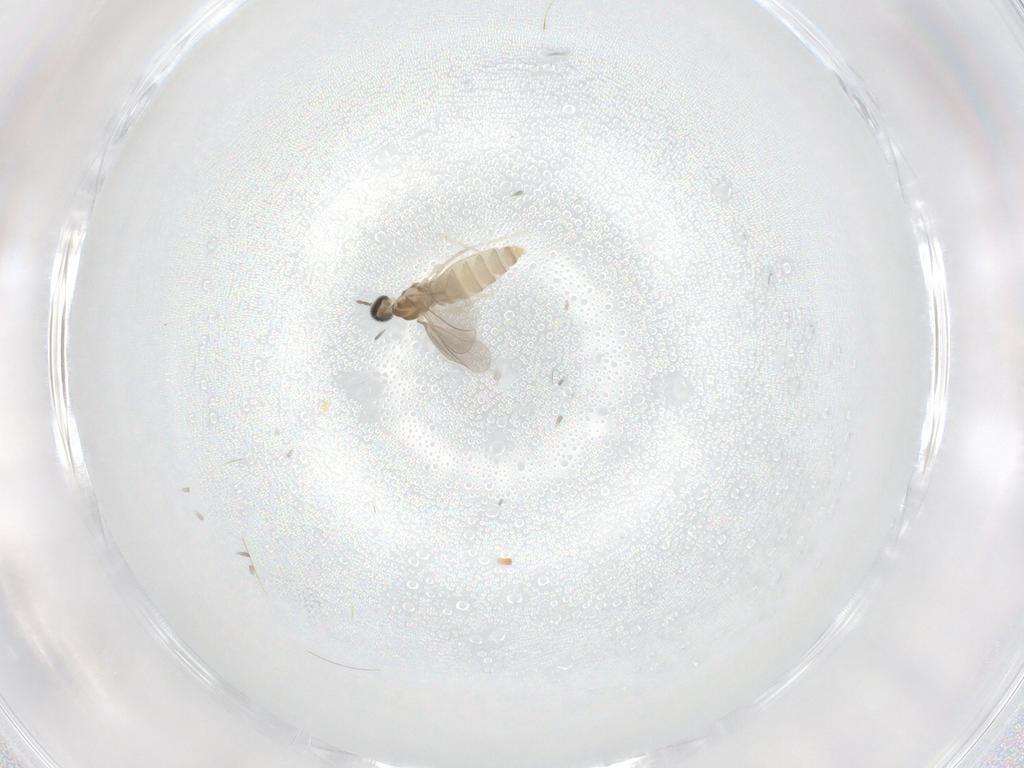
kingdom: Animalia
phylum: Arthropoda
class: Insecta
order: Diptera
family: Cecidomyiidae
